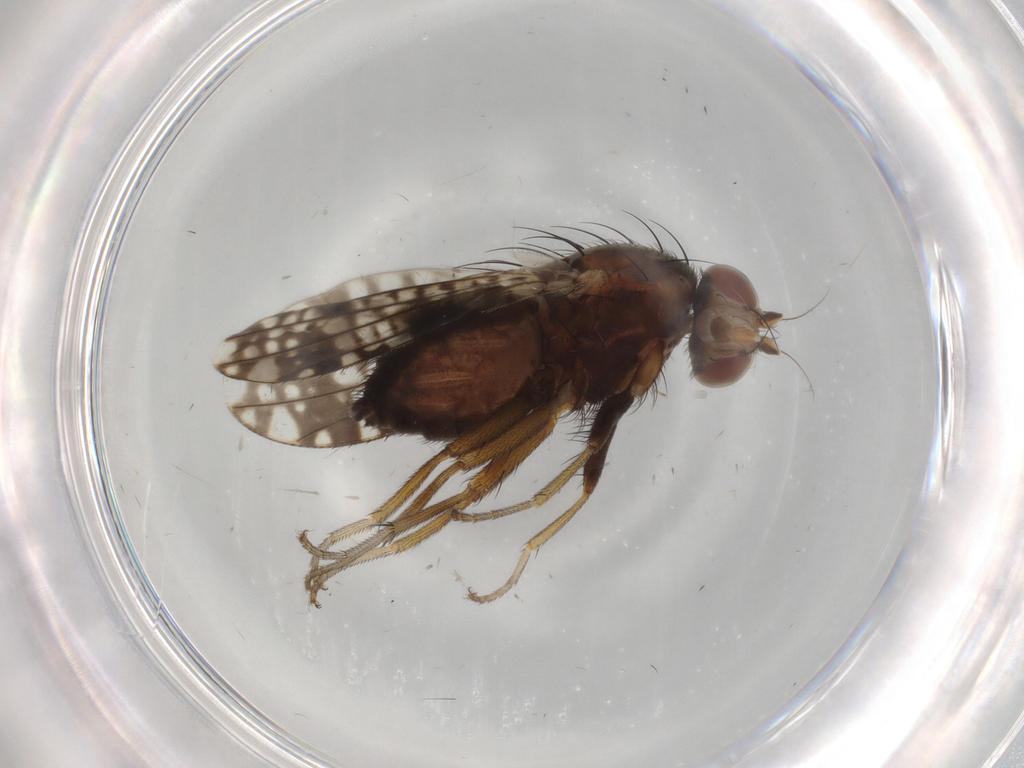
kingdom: Animalia
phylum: Arthropoda
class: Insecta
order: Diptera
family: Tephritidae
